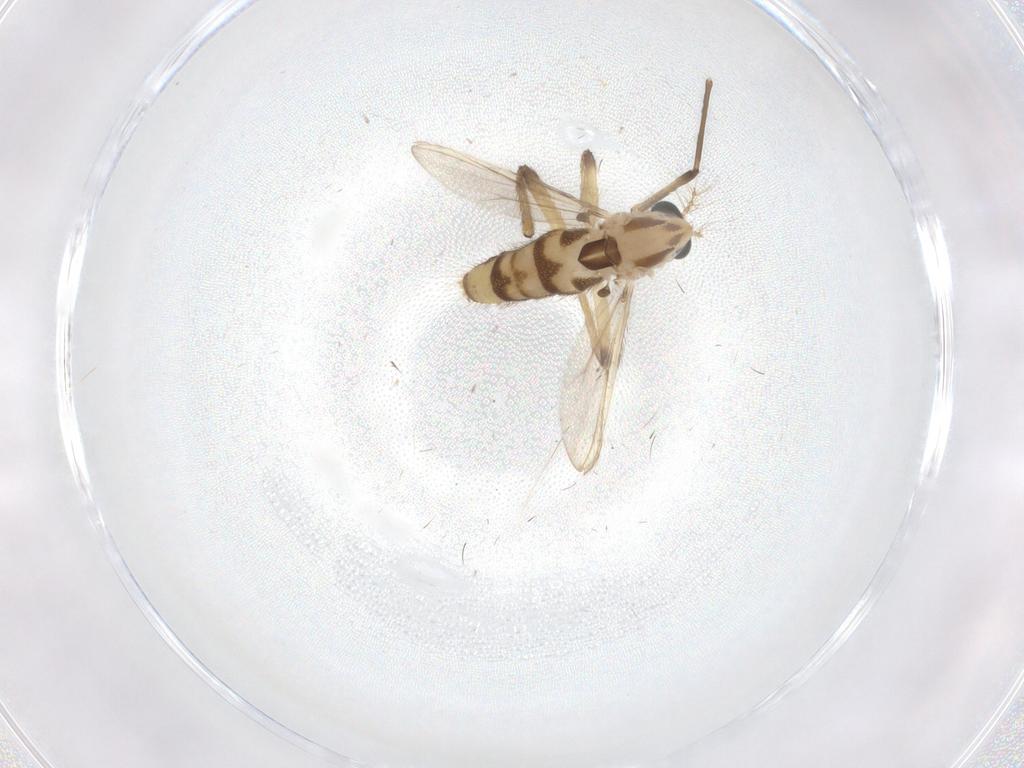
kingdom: Animalia
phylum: Arthropoda
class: Insecta
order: Diptera
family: Chironomidae
